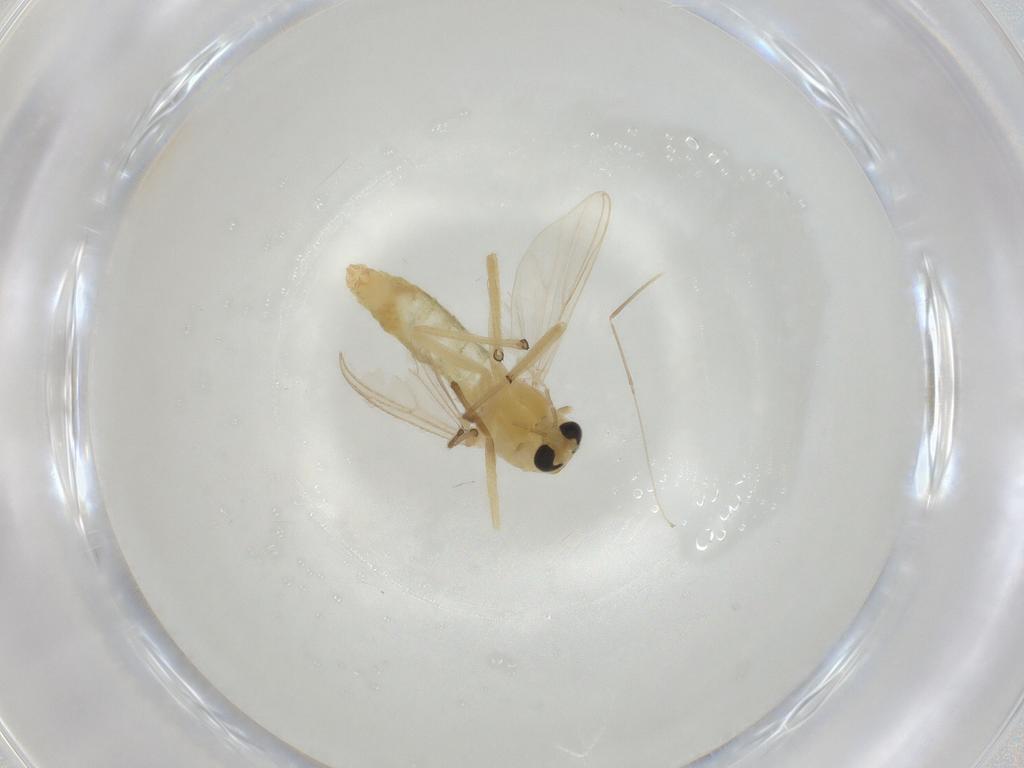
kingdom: Animalia
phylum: Arthropoda
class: Insecta
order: Diptera
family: Chironomidae
